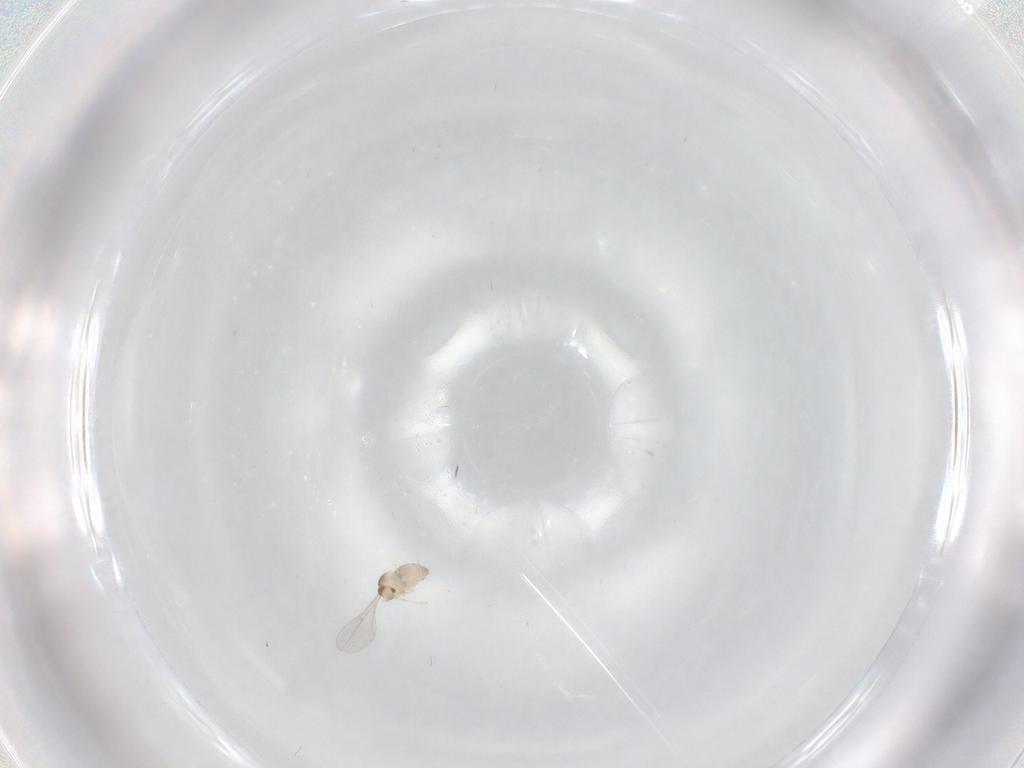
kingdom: Animalia
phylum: Arthropoda
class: Insecta
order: Diptera
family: Cecidomyiidae
